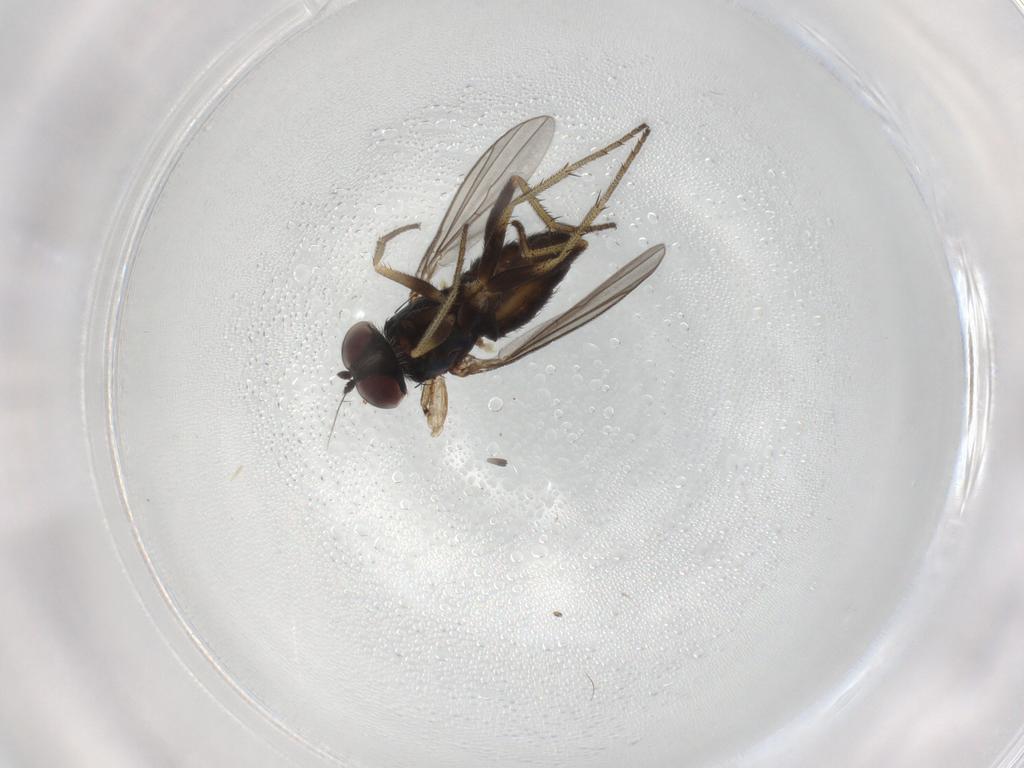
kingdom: Animalia
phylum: Arthropoda
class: Insecta
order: Diptera
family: Dolichopodidae
